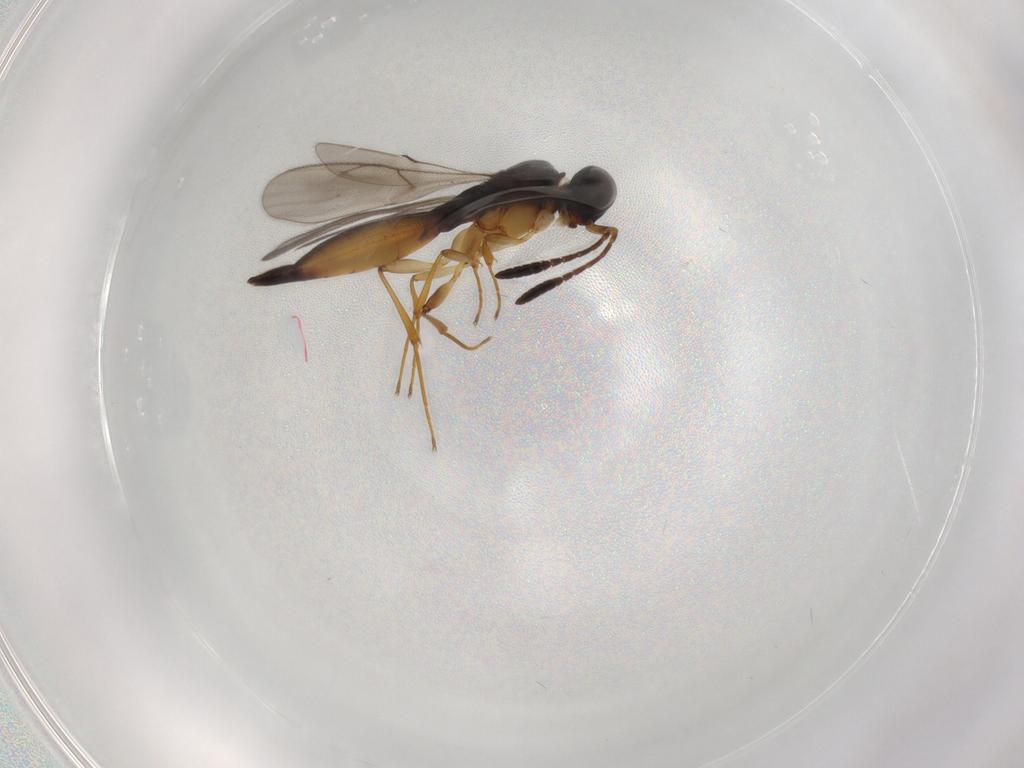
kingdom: Animalia
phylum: Arthropoda
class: Insecta
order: Hymenoptera
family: Scelionidae
